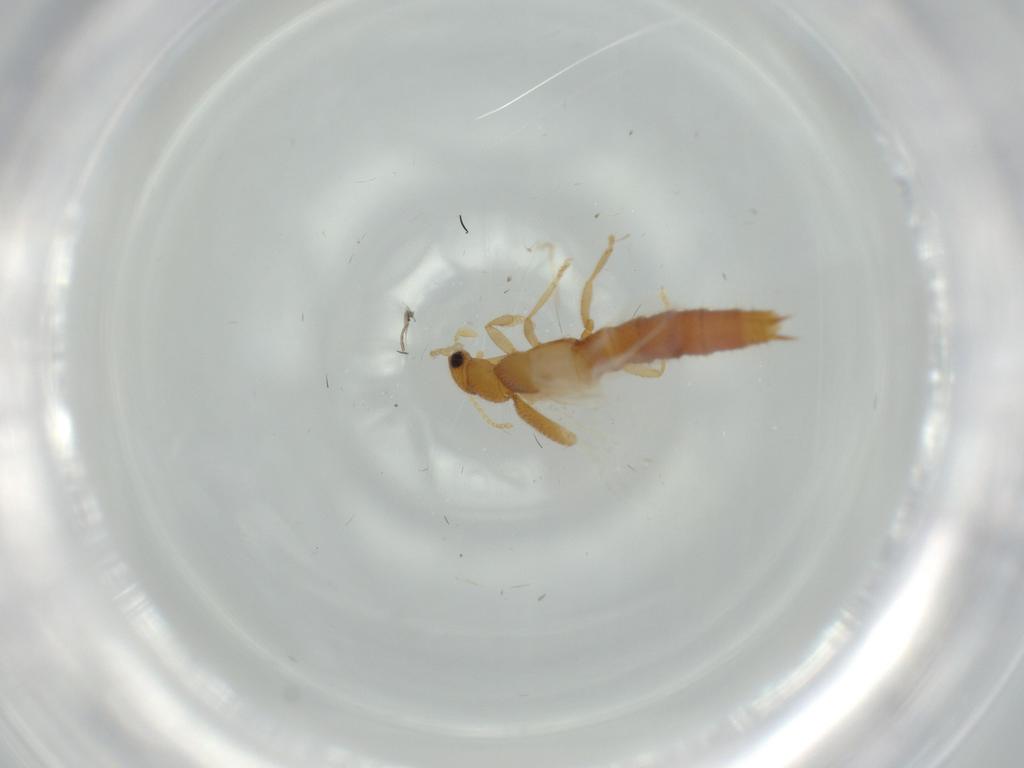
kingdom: Animalia
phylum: Arthropoda
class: Insecta
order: Coleoptera
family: Staphylinidae
